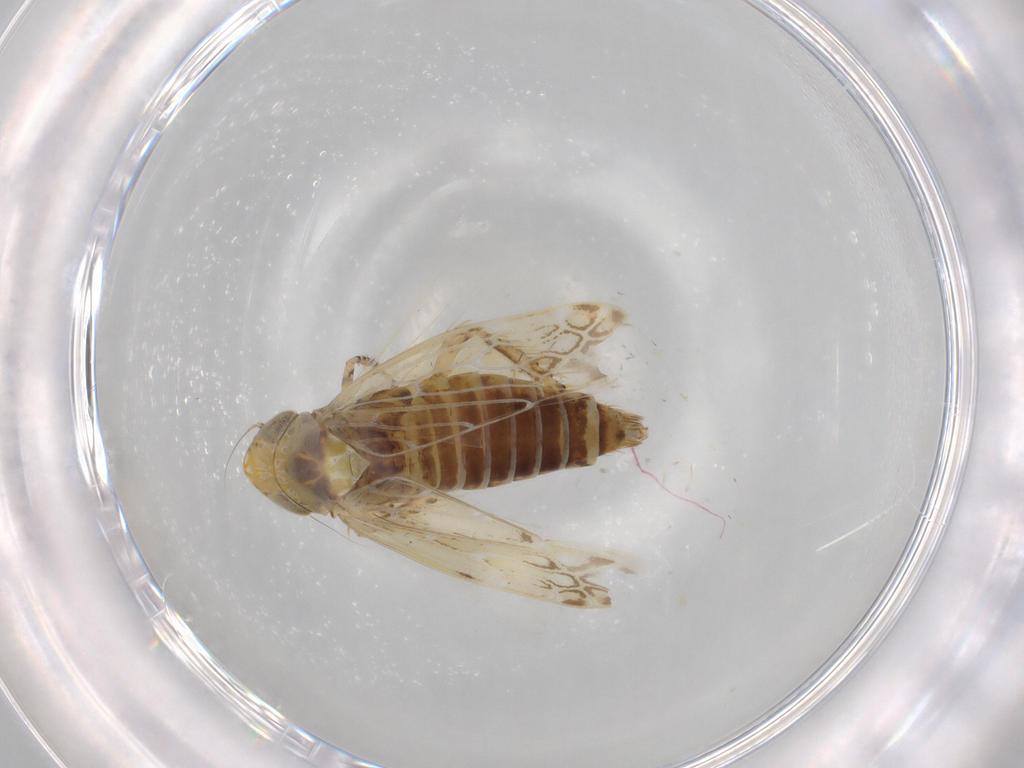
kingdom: Animalia
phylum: Arthropoda
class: Insecta
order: Hemiptera
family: Cicadellidae
